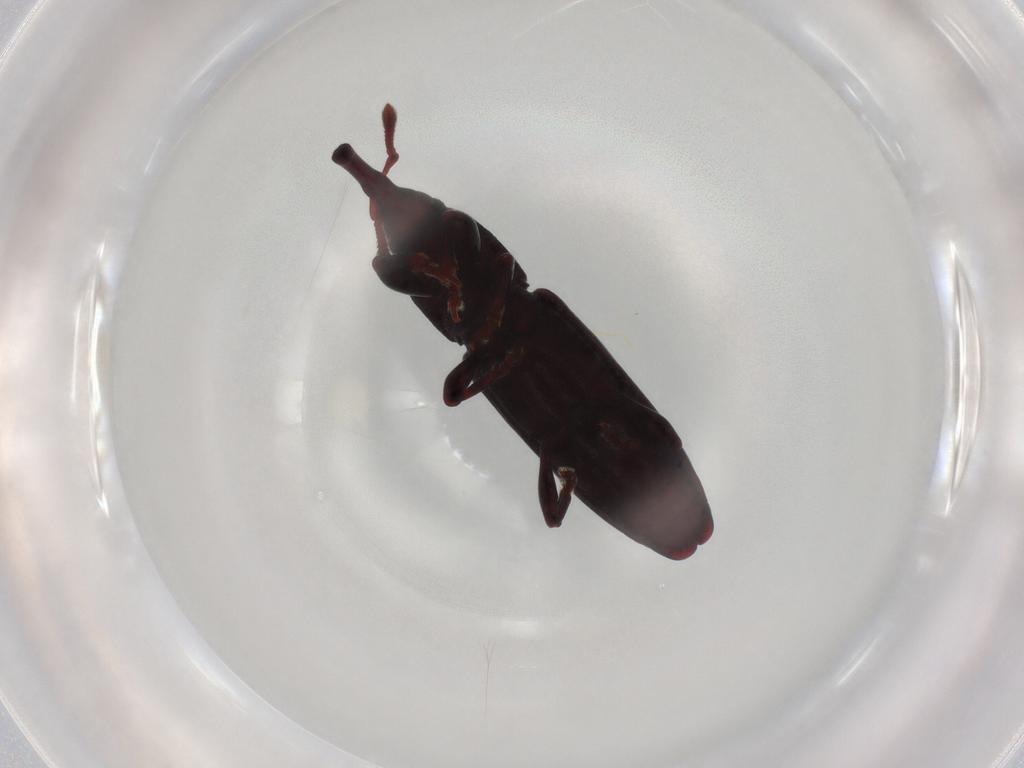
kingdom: Animalia
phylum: Arthropoda
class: Insecta
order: Coleoptera
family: Curculionidae
